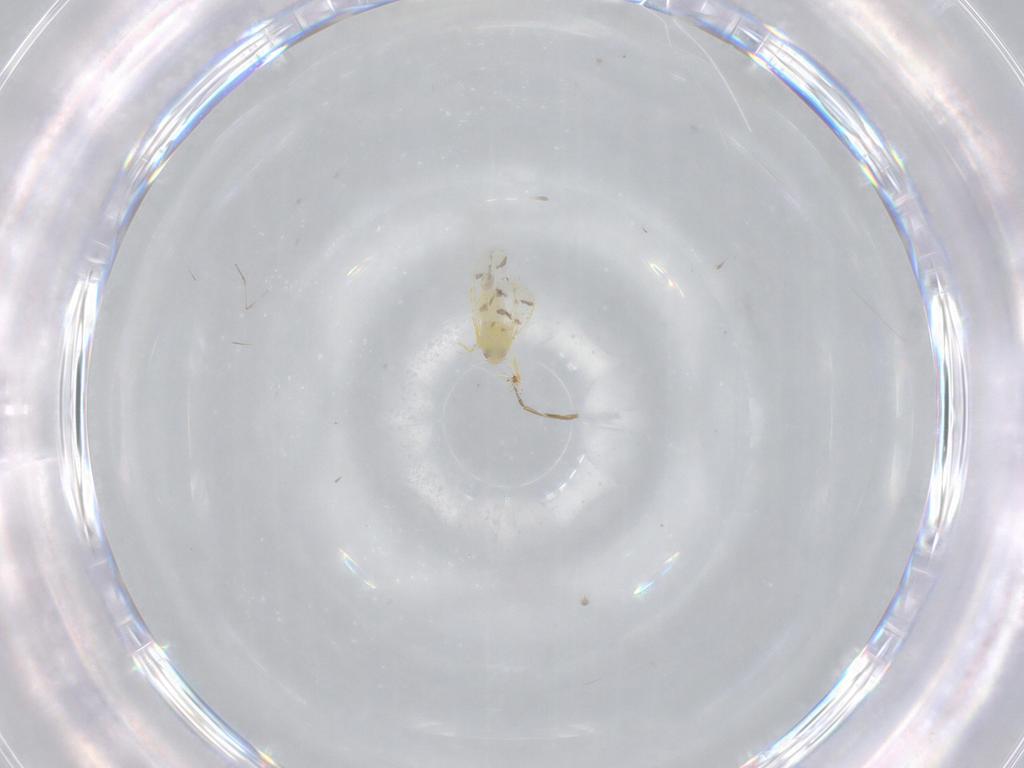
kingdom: Animalia
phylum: Arthropoda
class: Insecta
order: Hemiptera
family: Aleyrodidae
